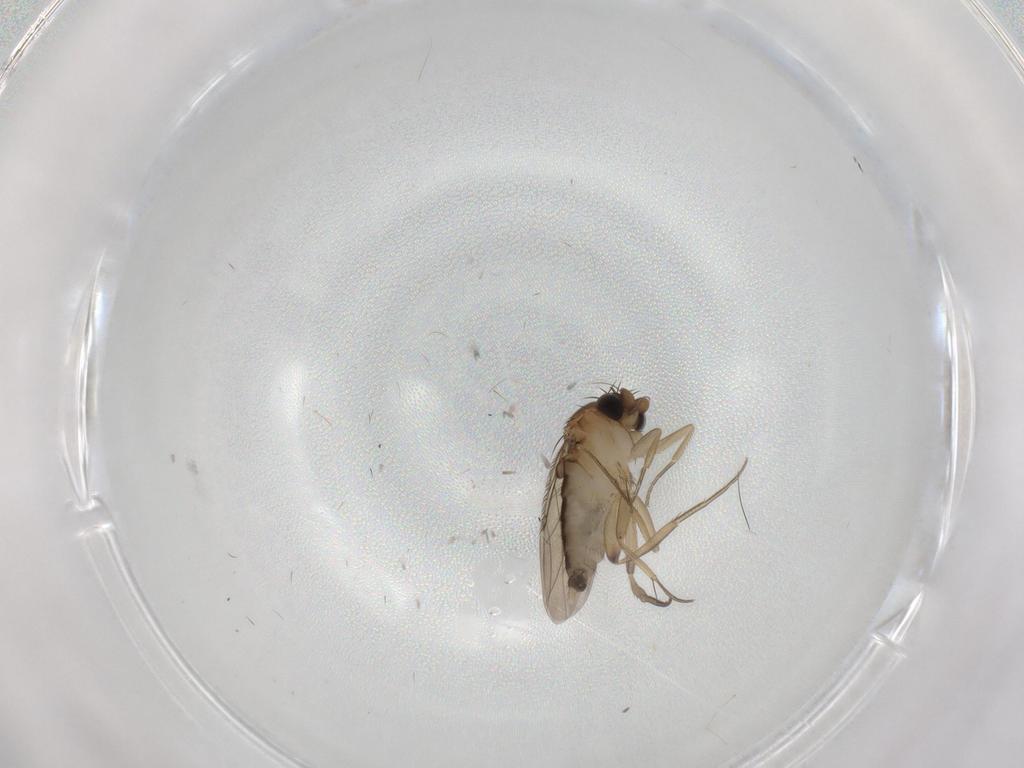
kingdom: Animalia
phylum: Arthropoda
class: Insecta
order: Diptera
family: Phoridae
